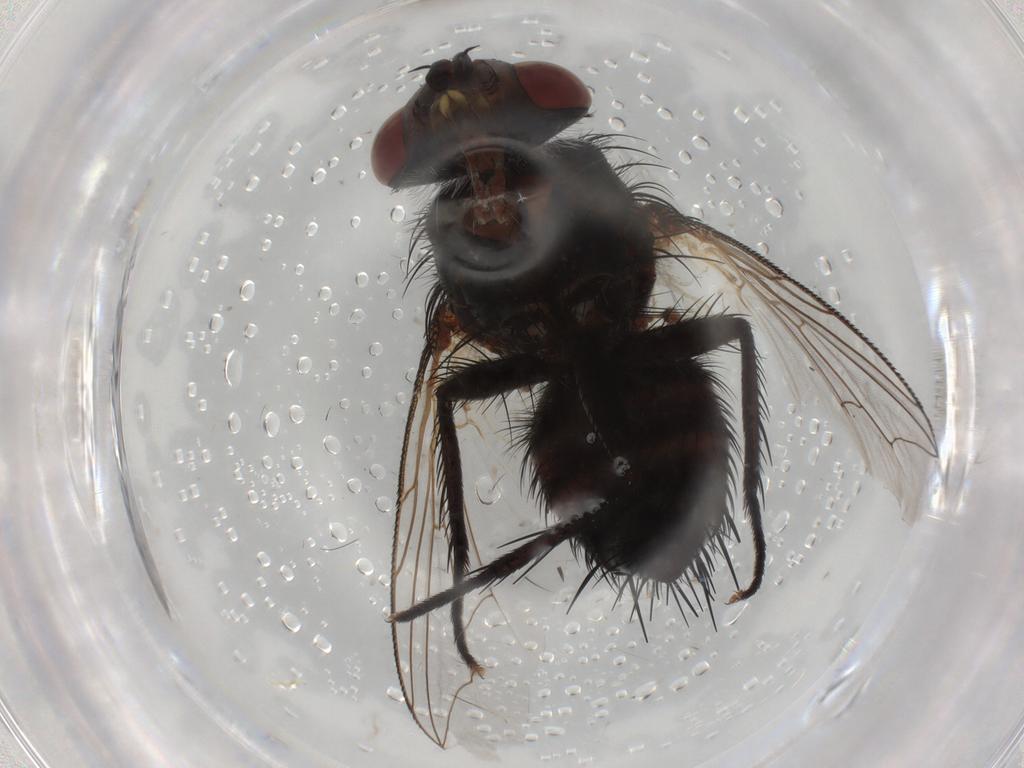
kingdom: Animalia
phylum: Arthropoda
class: Insecta
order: Diptera
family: Tachinidae
